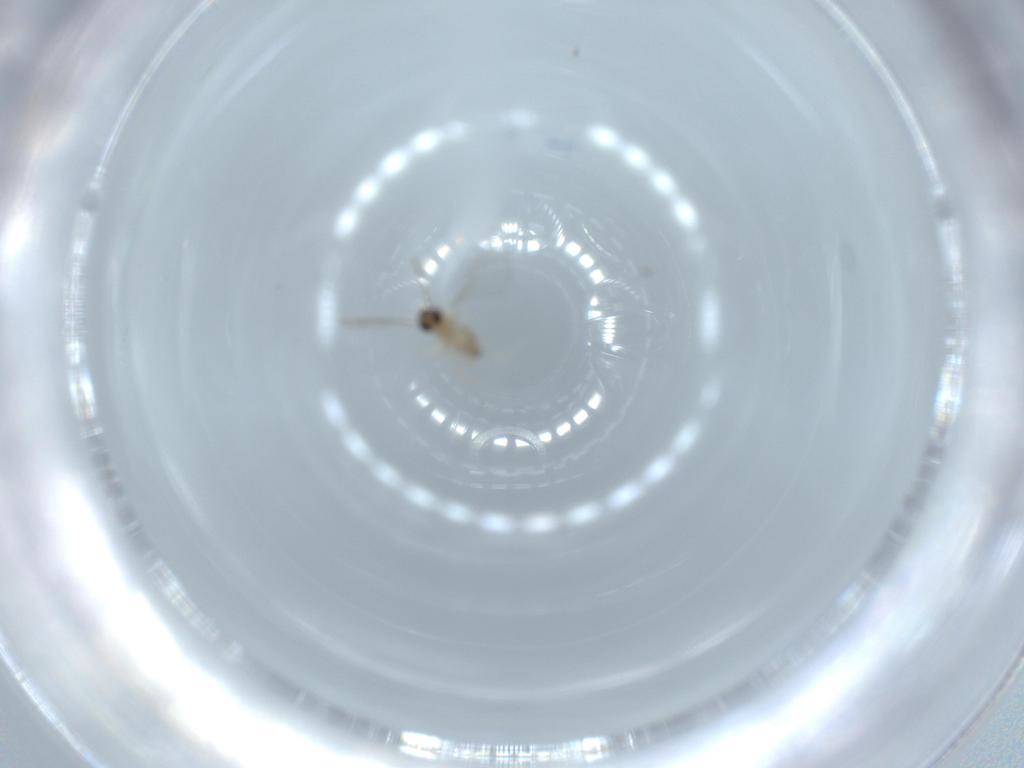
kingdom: Animalia
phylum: Arthropoda
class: Insecta
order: Diptera
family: Cecidomyiidae
